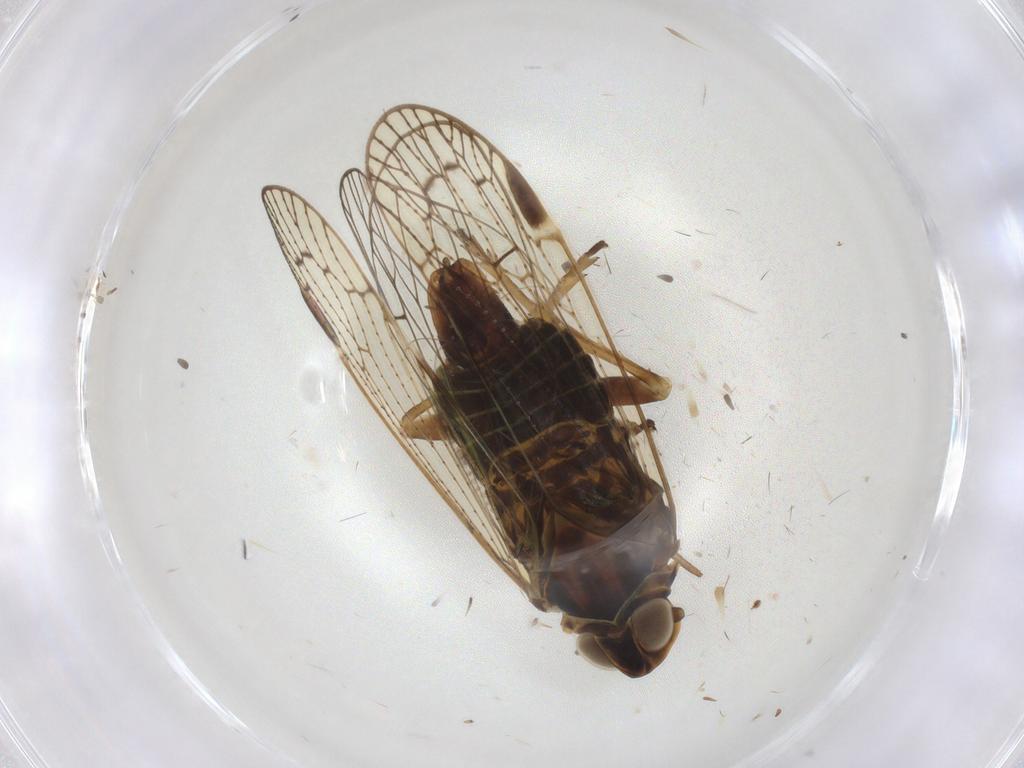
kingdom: Animalia
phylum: Arthropoda
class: Insecta
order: Hemiptera
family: Cixiidae
